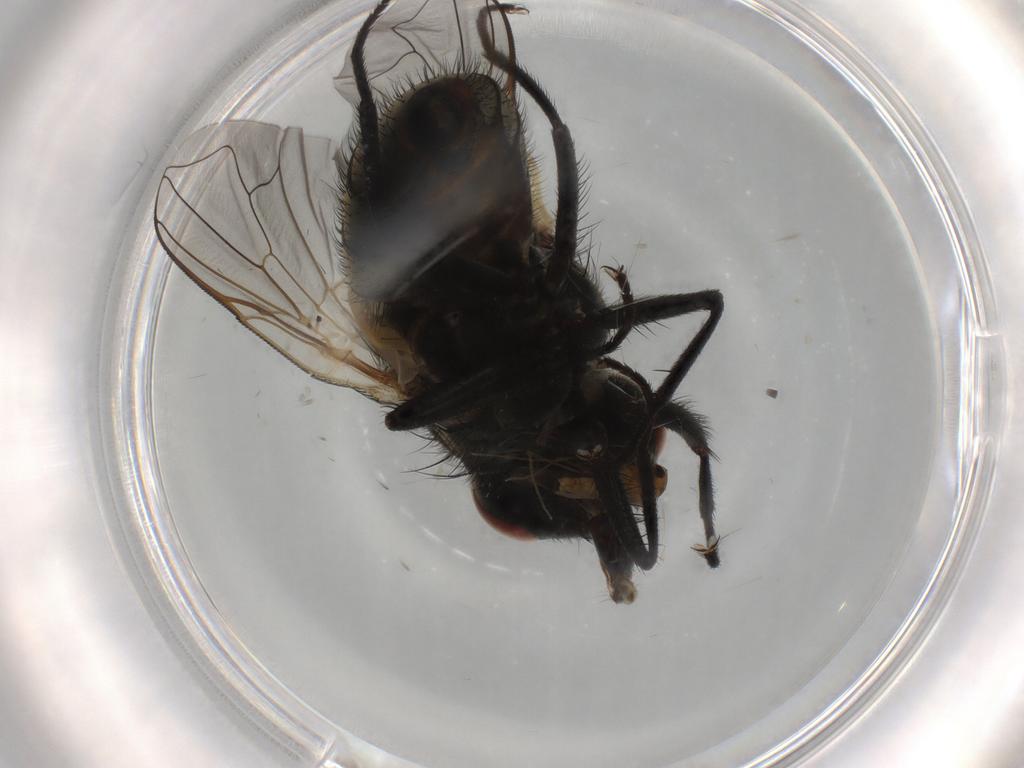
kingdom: Animalia
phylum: Arthropoda
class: Insecta
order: Diptera
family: Chironomidae
